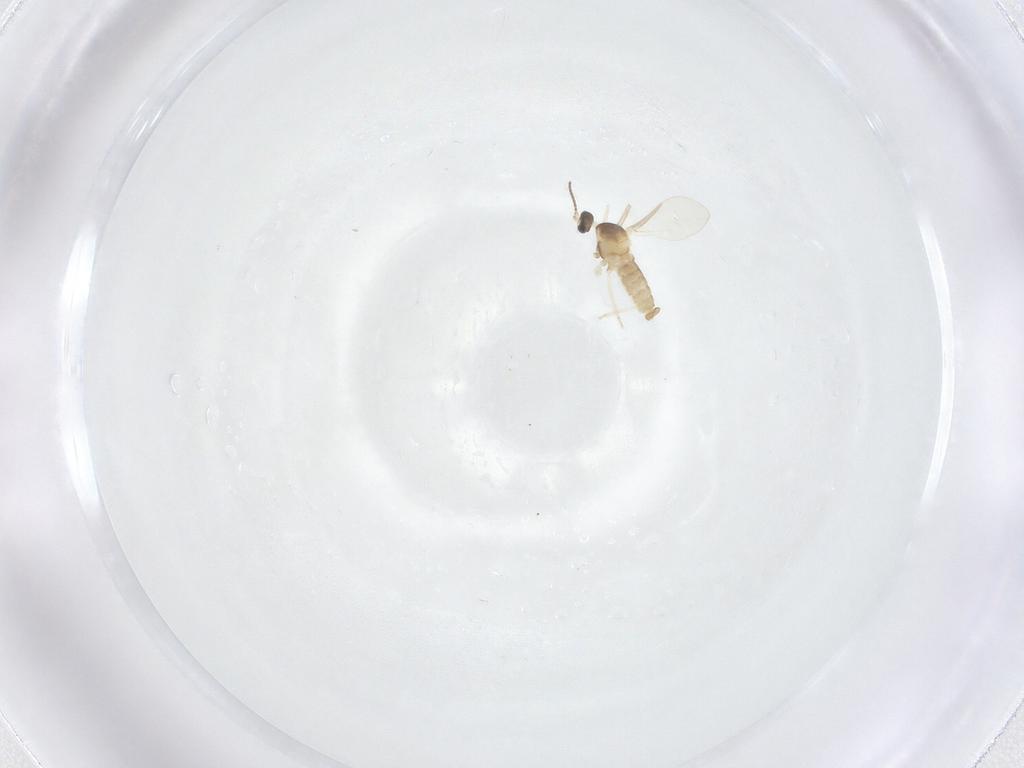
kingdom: Animalia
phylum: Arthropoda
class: Insecta
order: Diptera
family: Cecidomyiidae
